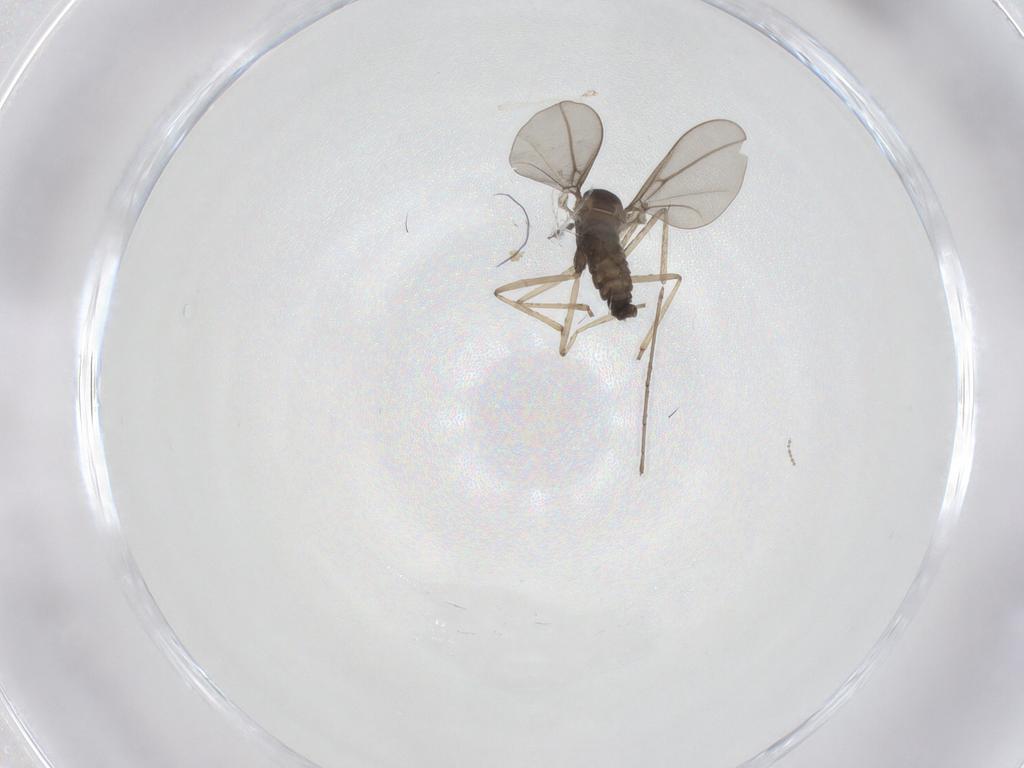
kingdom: Animalia
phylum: Arthropoda
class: Insecta
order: Diptera
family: Cecidomyiidae
